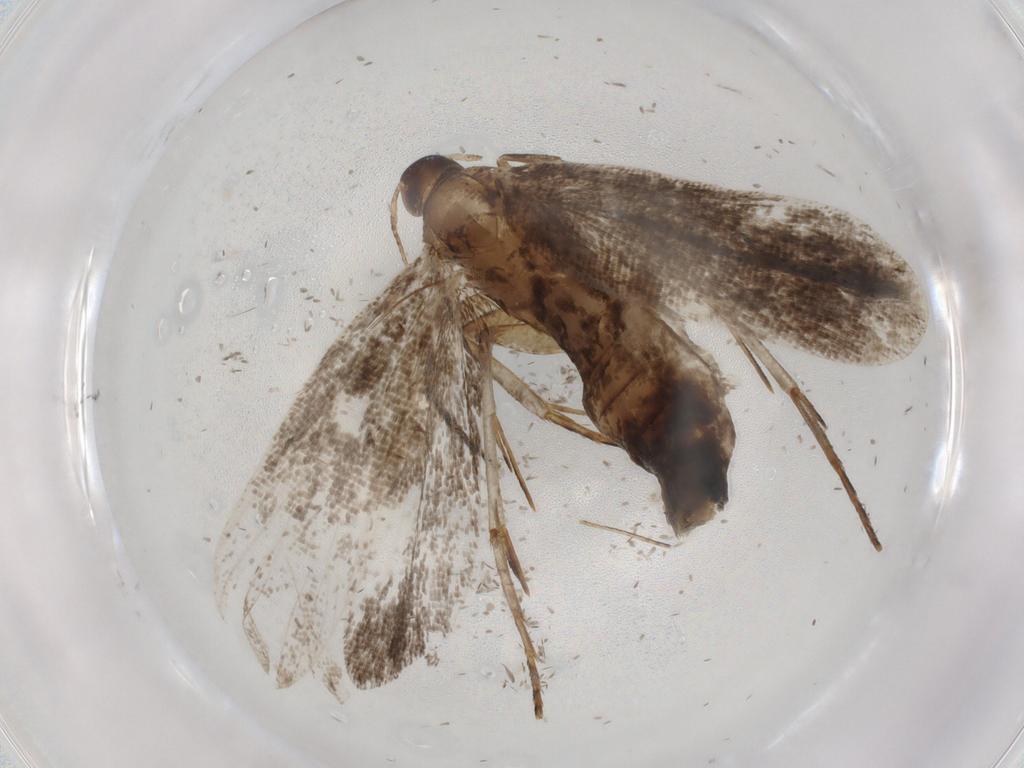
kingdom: Animalia
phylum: Arthropoda
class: Insecta
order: Lepidoptera
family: Gelechiidae
